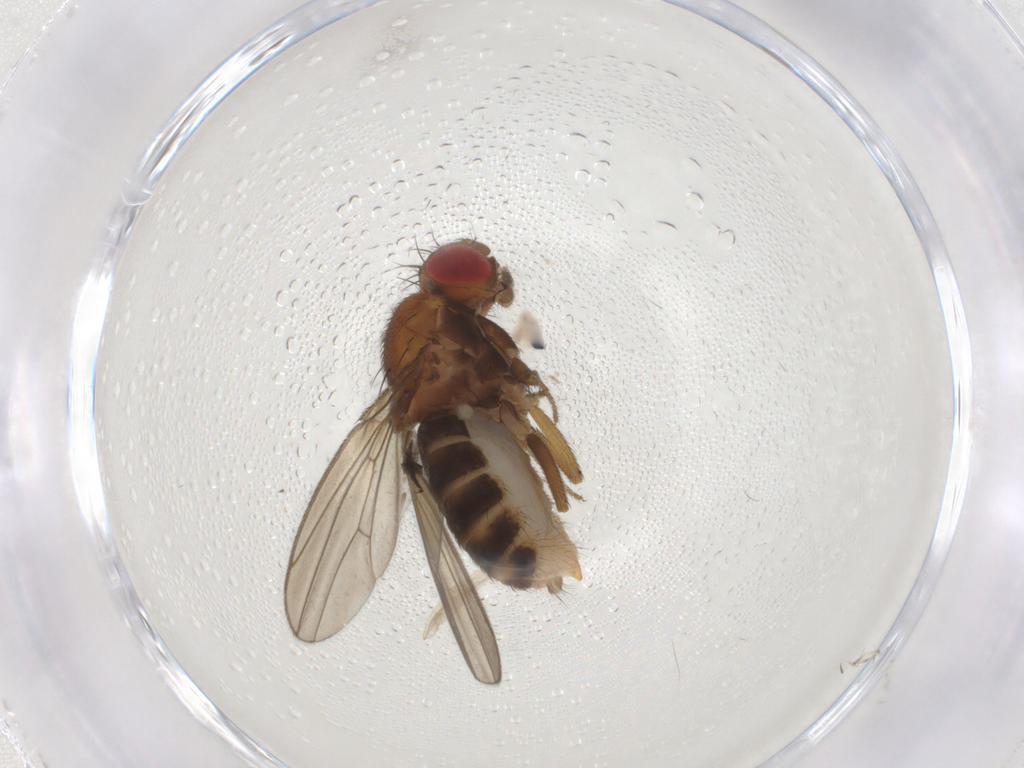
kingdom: Animalia
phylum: Arthropoda
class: Insecta
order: Diptera
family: Drosophilidae
